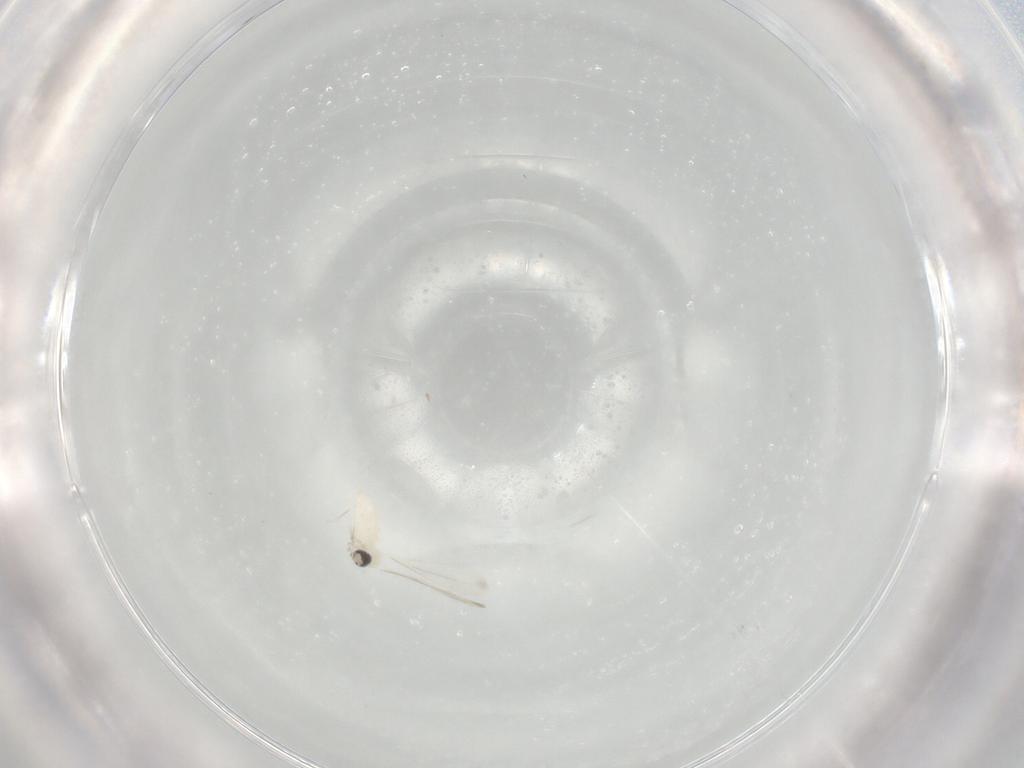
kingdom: Animalia
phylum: Arthropoda
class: Insecta
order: Diptera
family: Cecidomyiidae
